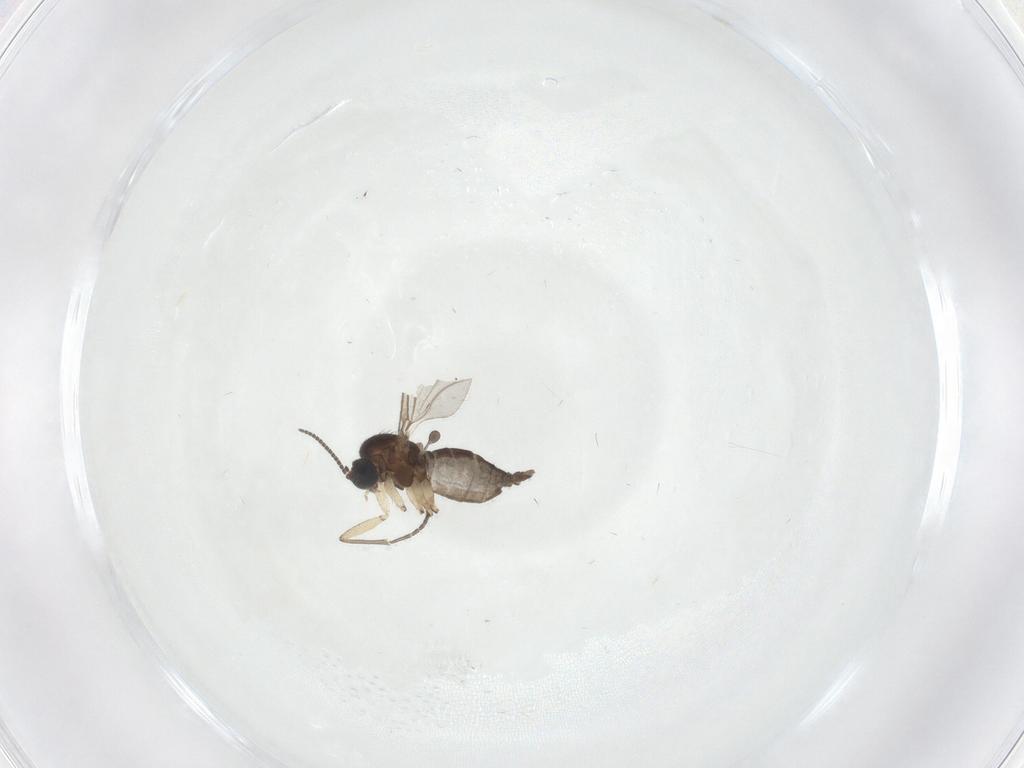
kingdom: Animalia
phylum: Arthropoda
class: Insecta
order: Diptera
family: Sciaridae
